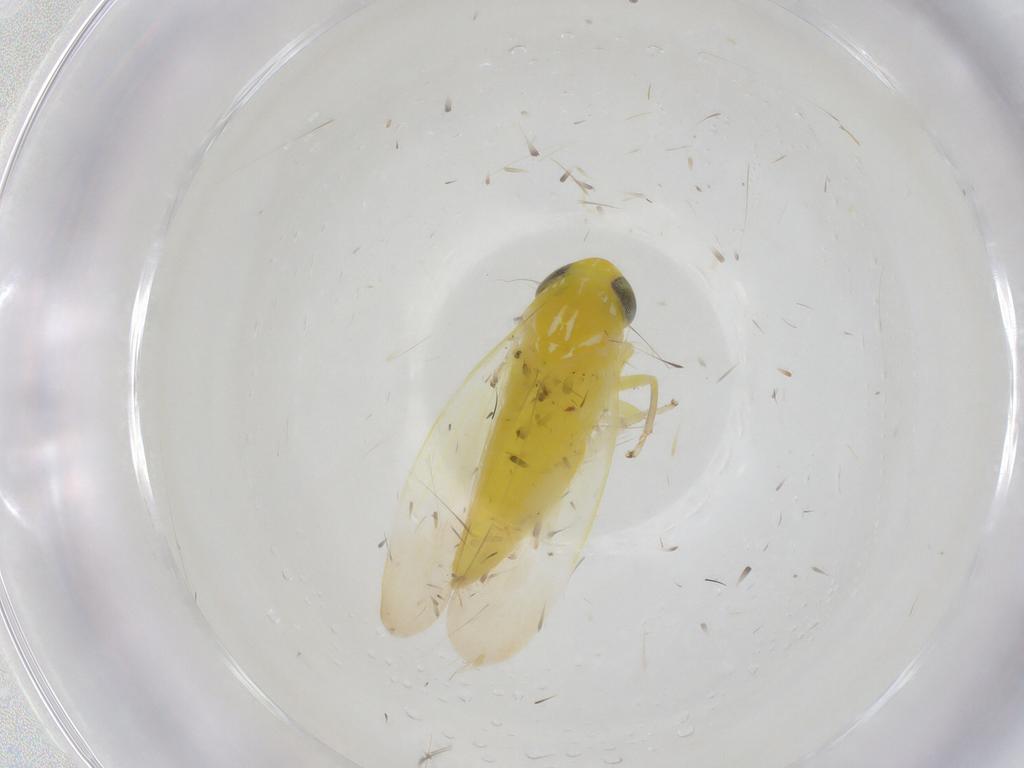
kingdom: Animalia
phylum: Arthropoda
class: Insecta
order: Hemiptera
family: Cicadellidae
